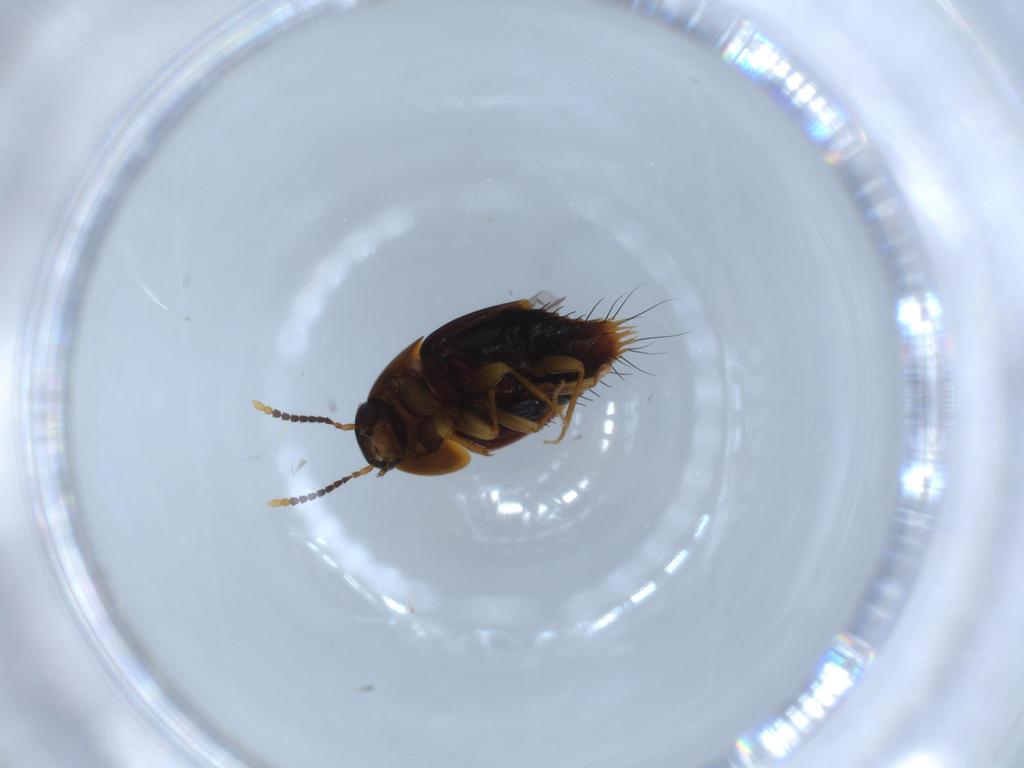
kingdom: Animalia
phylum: Arthropoda
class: Insecta
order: Coleoptera
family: Staphylinidae
